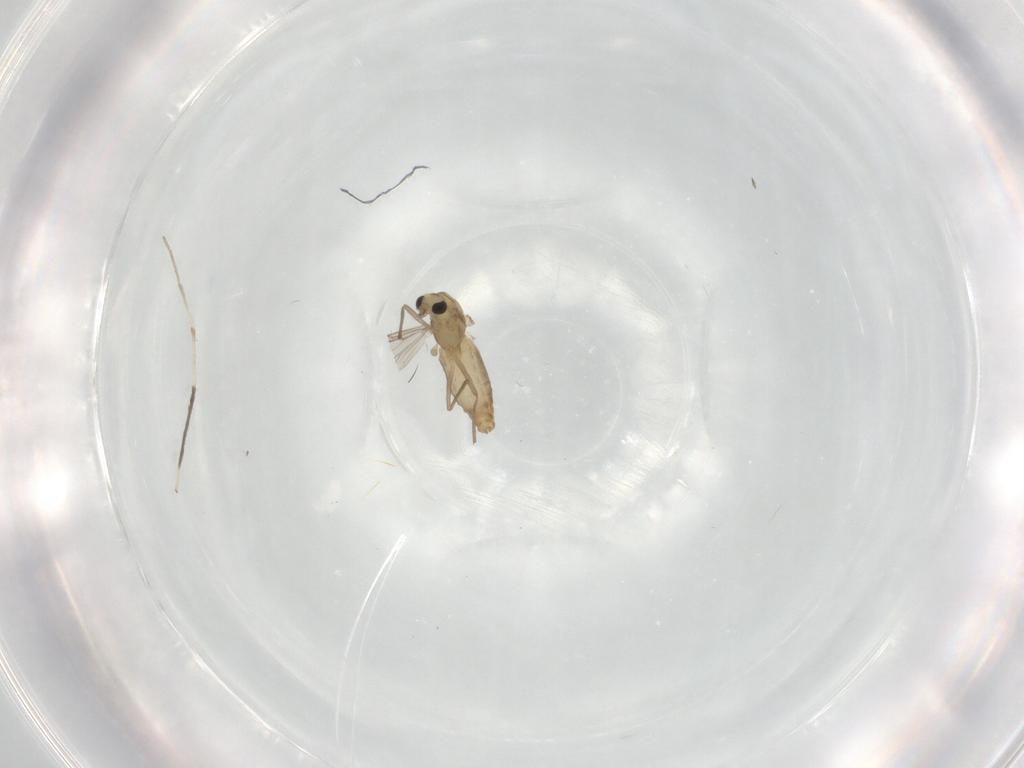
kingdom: Animalia
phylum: Arthropoda
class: Insecta
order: Diptera
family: Chironomidae
